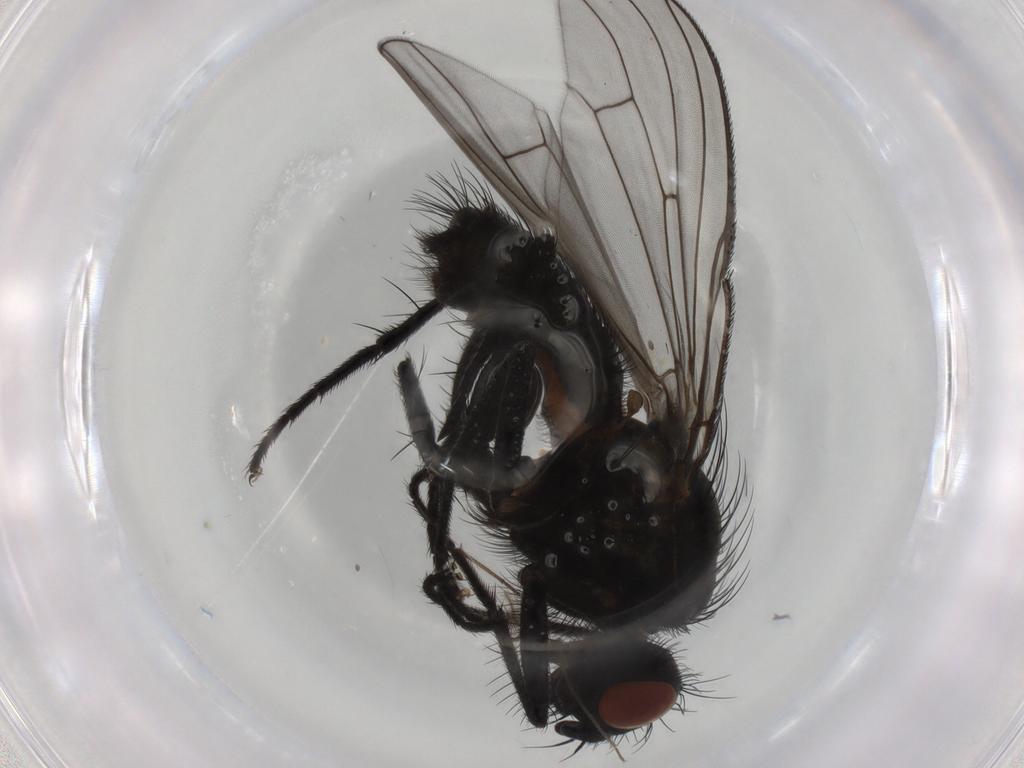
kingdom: Animalia
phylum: Arthropoda
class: Insecta
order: Diptera
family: Anthomyiidae
